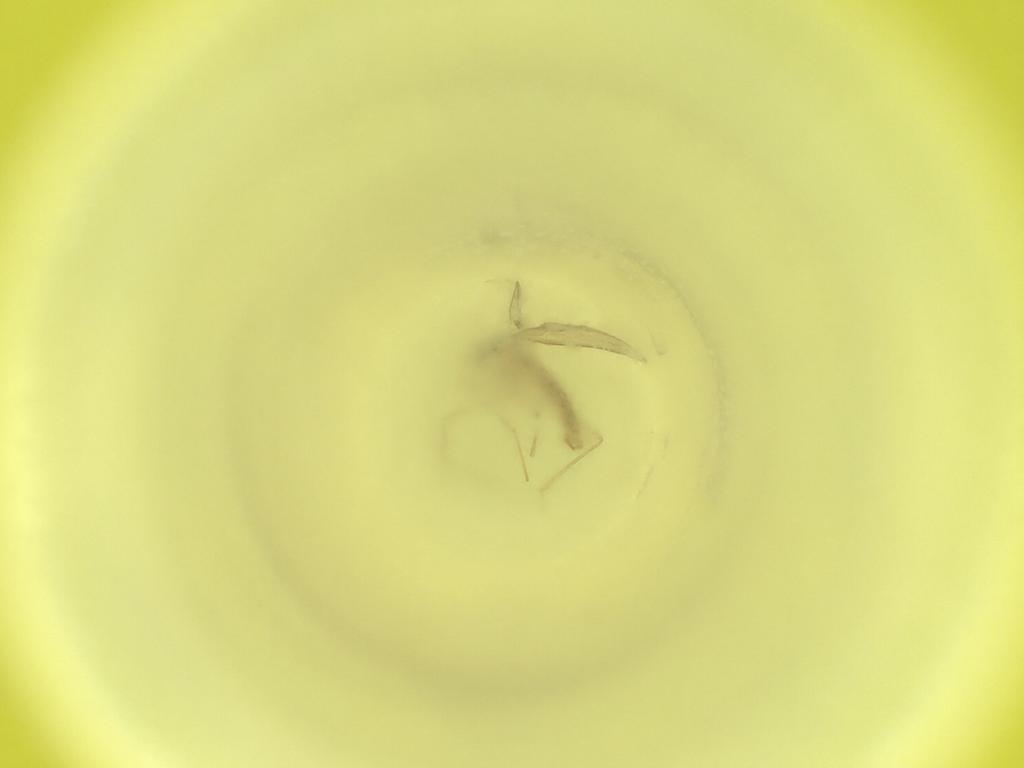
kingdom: Animalia
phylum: Arthropoda
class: Insecta
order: Diptera
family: Cecidomyiidae
